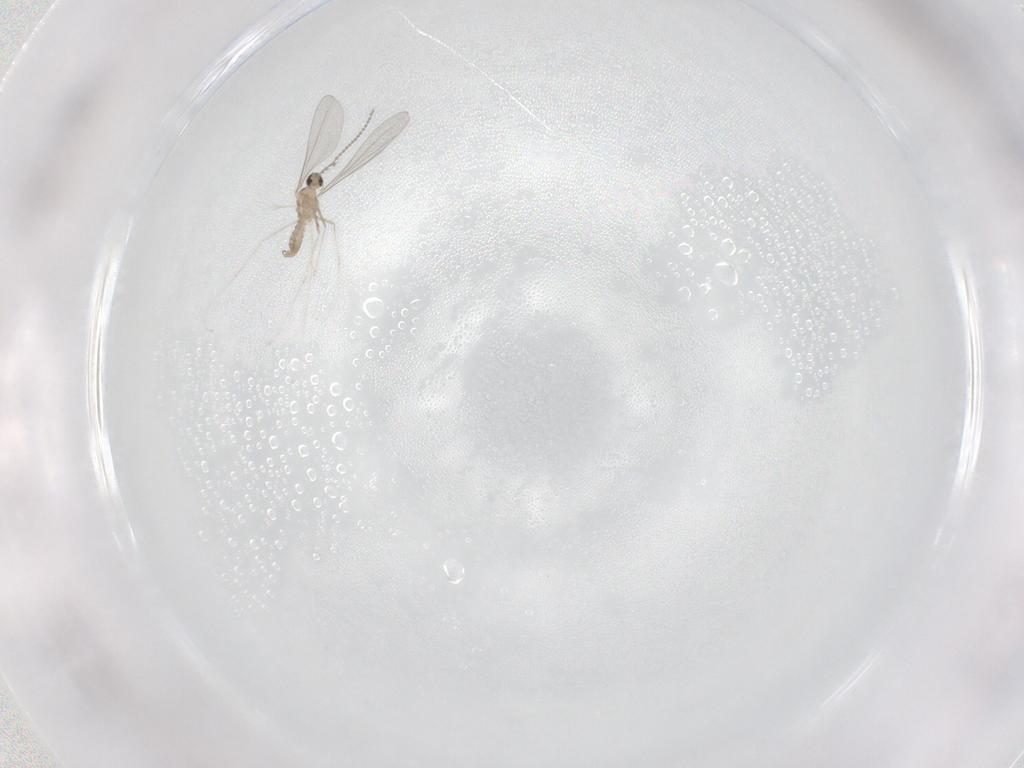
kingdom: Animalia
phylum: Arthropoda
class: Insecta
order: Diptera
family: Cecidomyiidae
